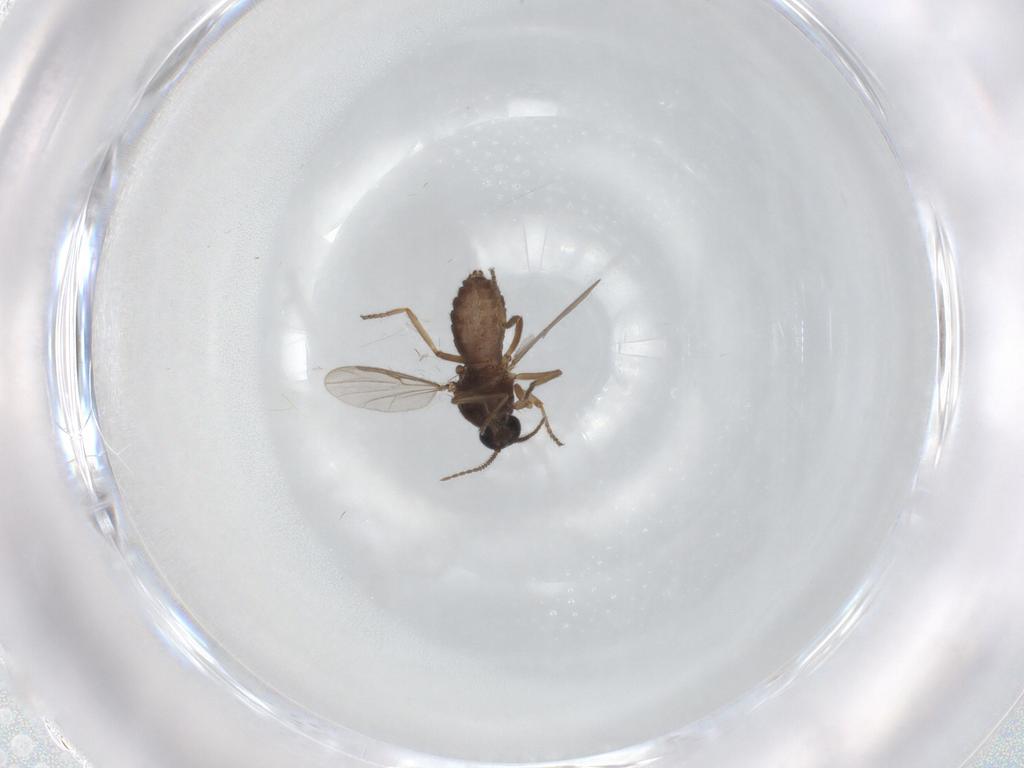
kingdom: Animalia
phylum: Arthropoda
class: Insecta
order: Diptera
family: Ceratopogonidae
